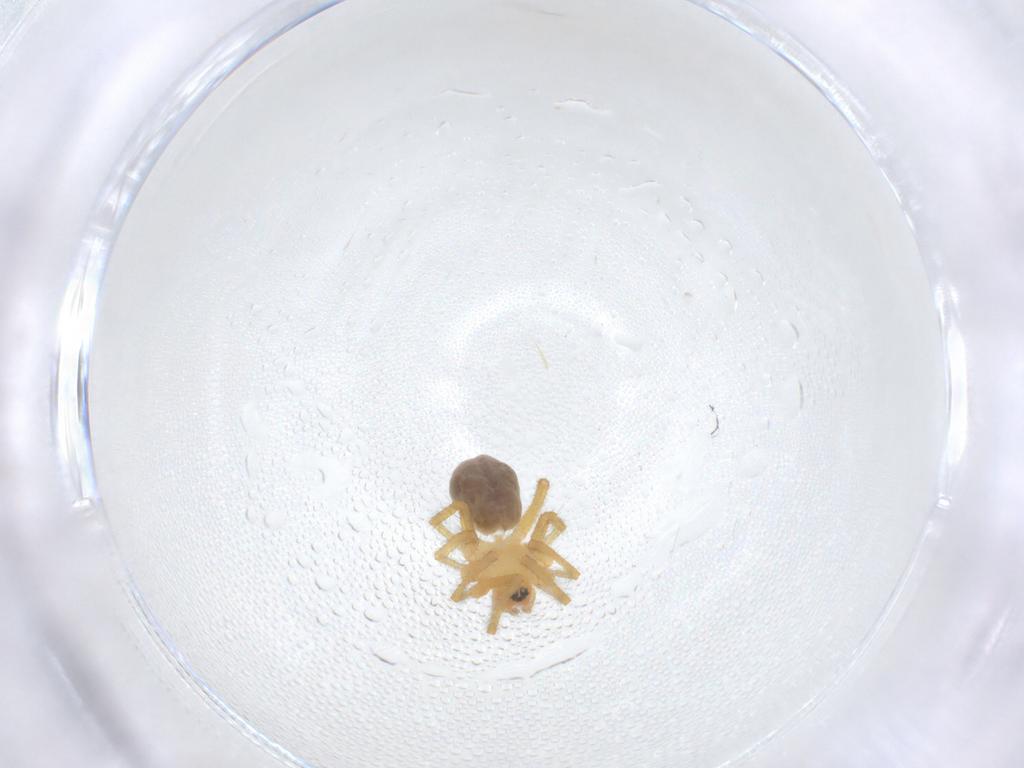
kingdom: Animalia
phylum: Arthropoda
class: Arachnida
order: Araneae
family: Linyphiidae
